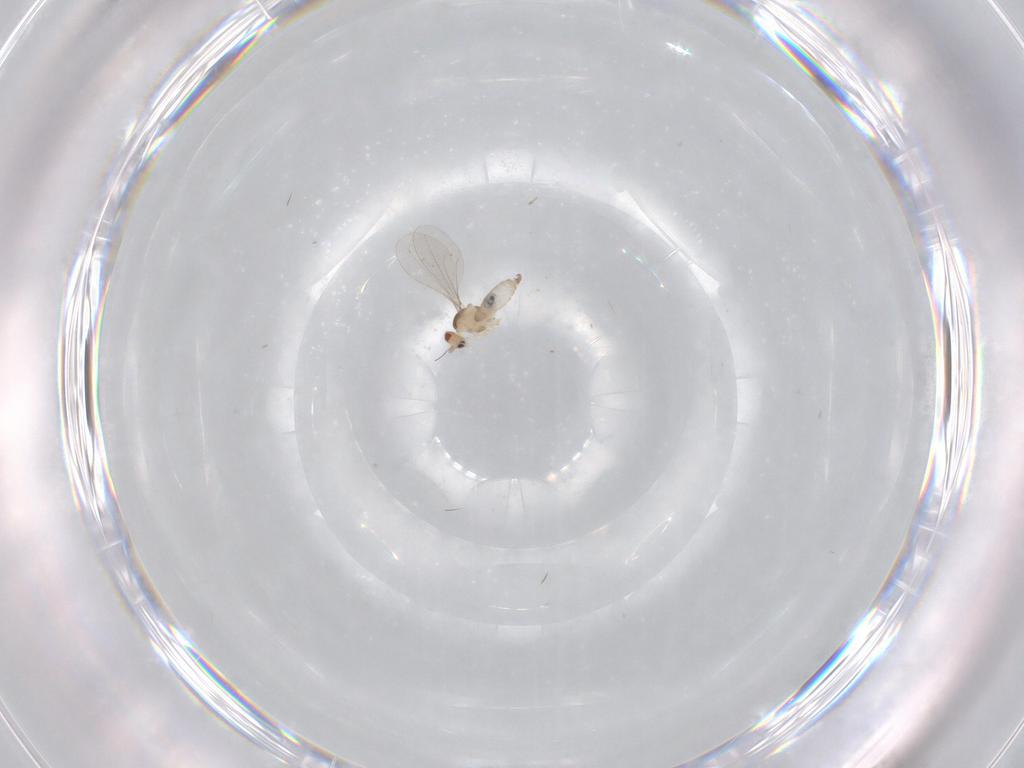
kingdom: Animalia
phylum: Arthropoda
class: Insecta
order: Diptera
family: Cecidomyiidae
